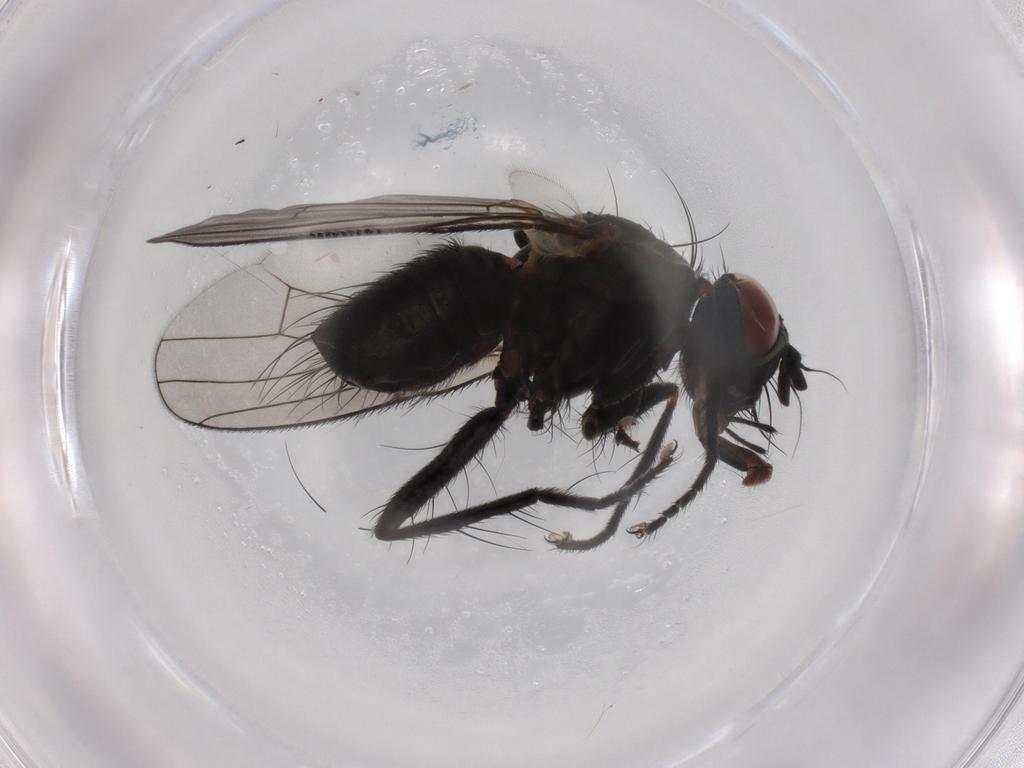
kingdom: Animalia
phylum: Arthropoda
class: Insecta
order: Diptera
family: Muscidae
